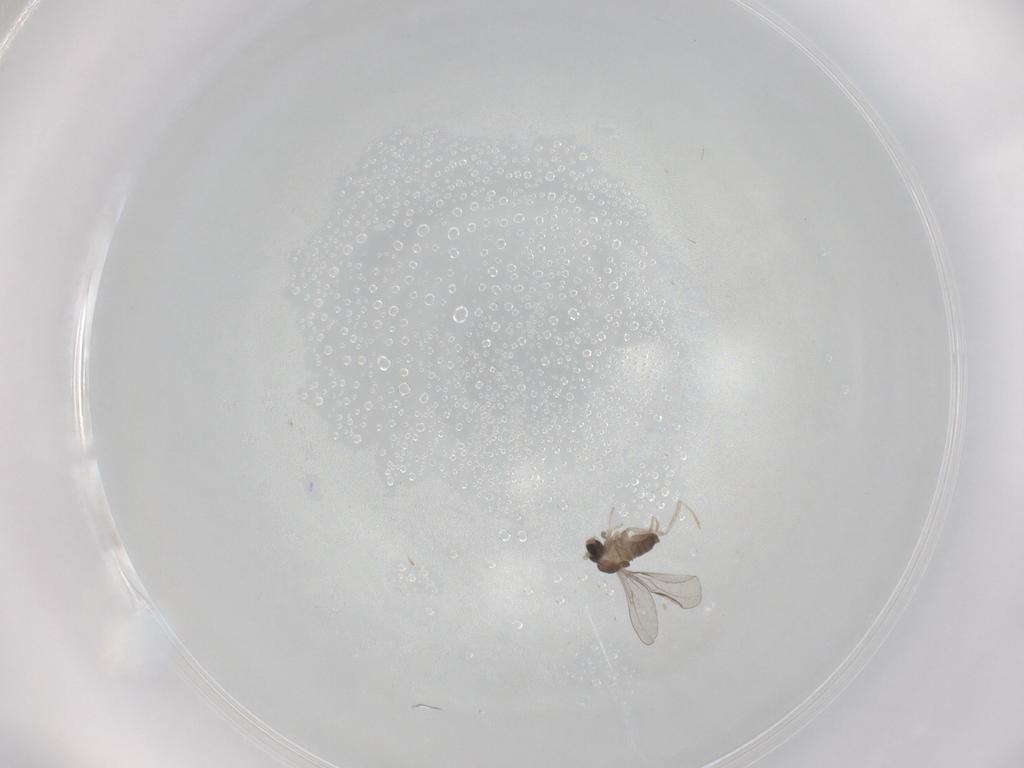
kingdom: Animalia
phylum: Arthropoda
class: Insecta
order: Diptera
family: Cecidomyiidae
